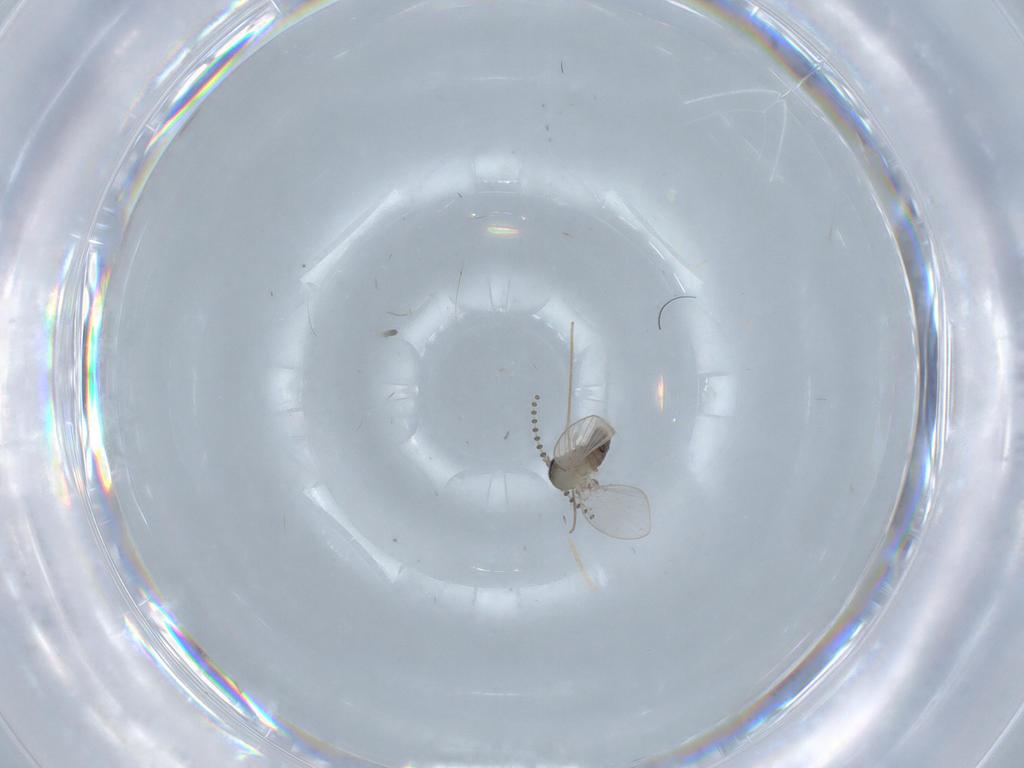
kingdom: Animalia
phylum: Arthropoda
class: Insecta
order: Diptera
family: Psychodidae
